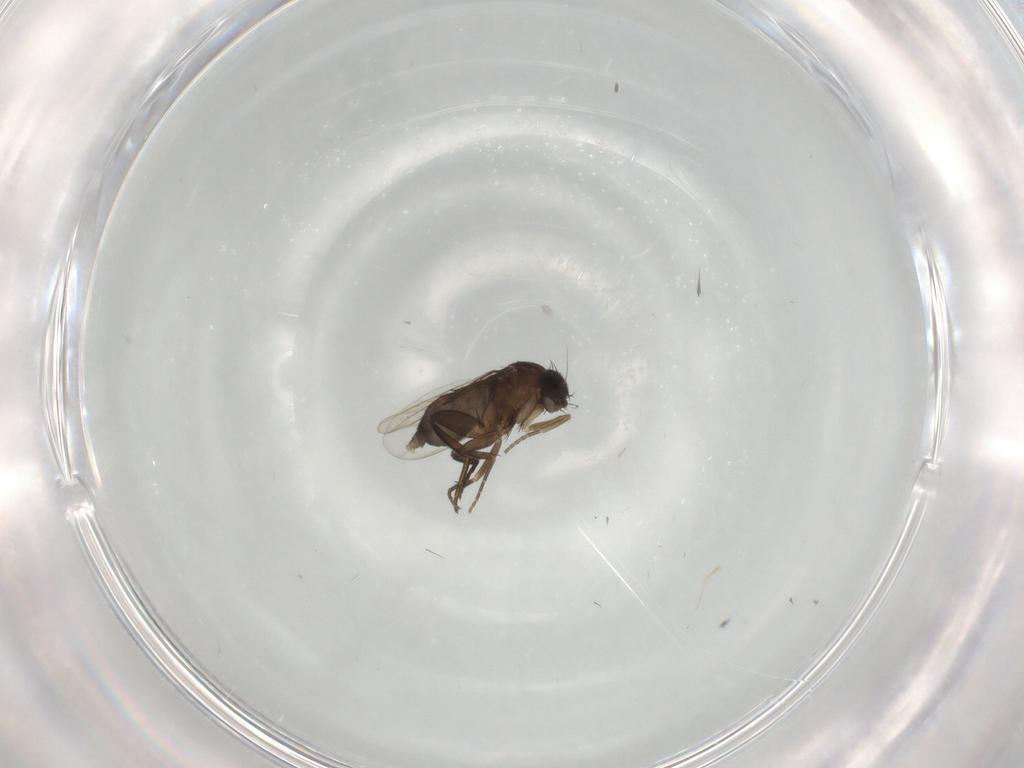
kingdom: Animalia
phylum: Arthropoda
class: Insecta
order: Diptera
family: Phoridae
